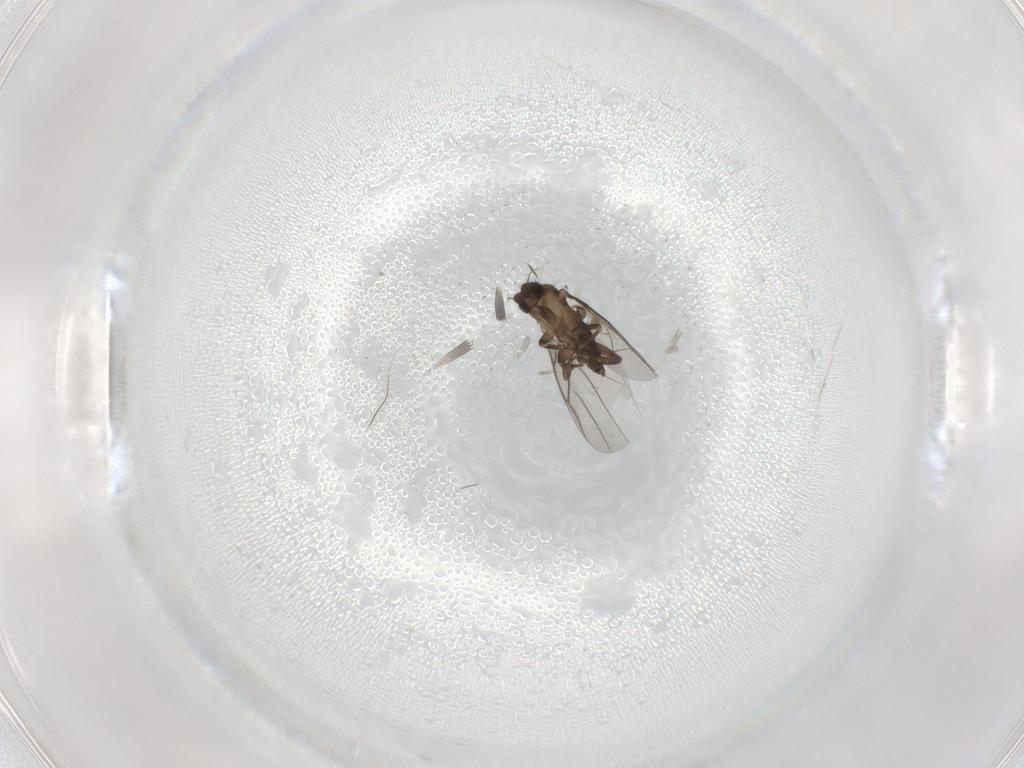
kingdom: Animalia
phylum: Arthropoda
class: Insecta
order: Diptera
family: Phoridae
